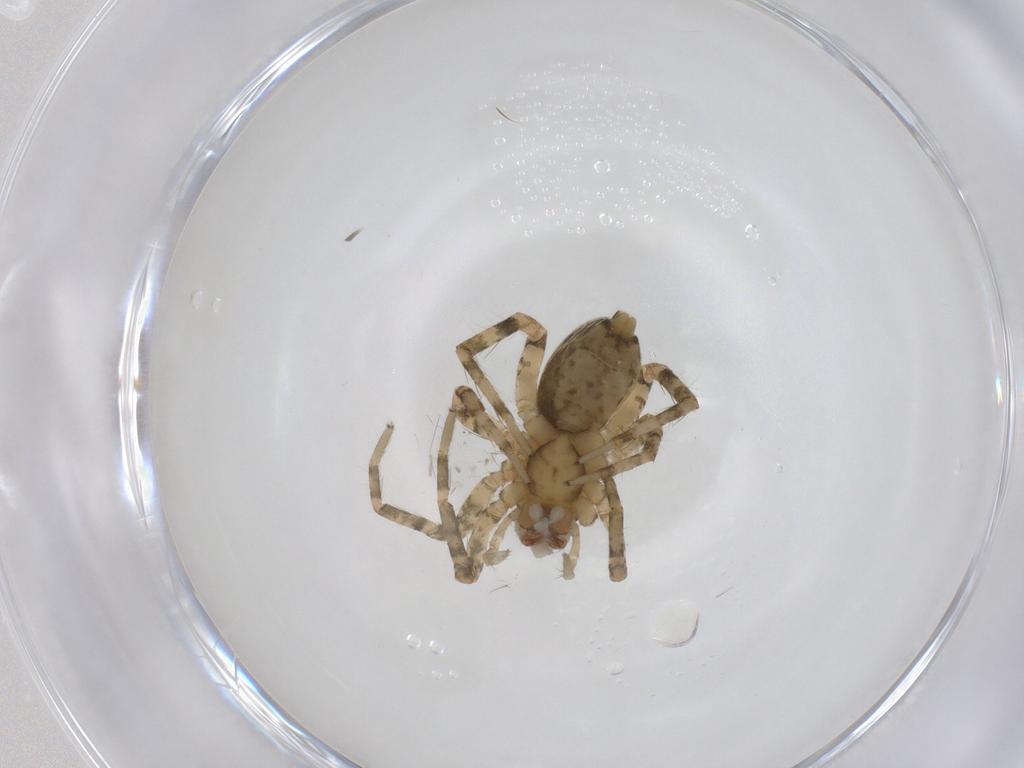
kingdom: Animalia
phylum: Arthropoda
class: Arachnida
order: Araneae
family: Anyphaenidae
